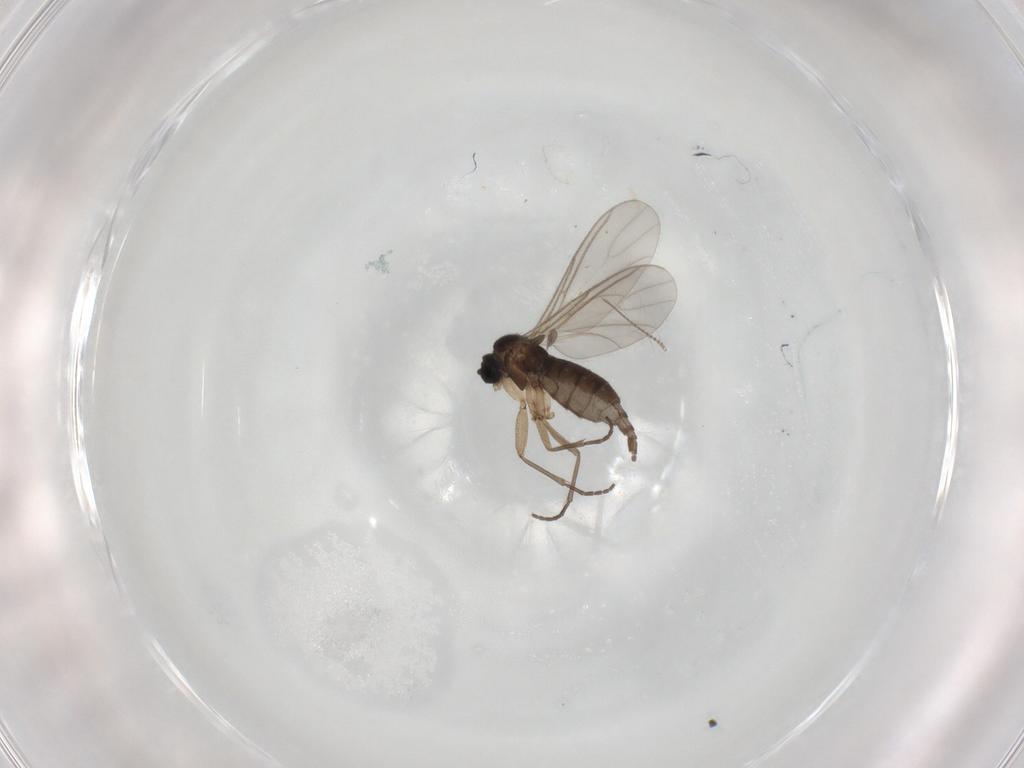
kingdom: Animalia
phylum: Arthropoda
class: Insecta
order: Diptera
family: Chironomidae
